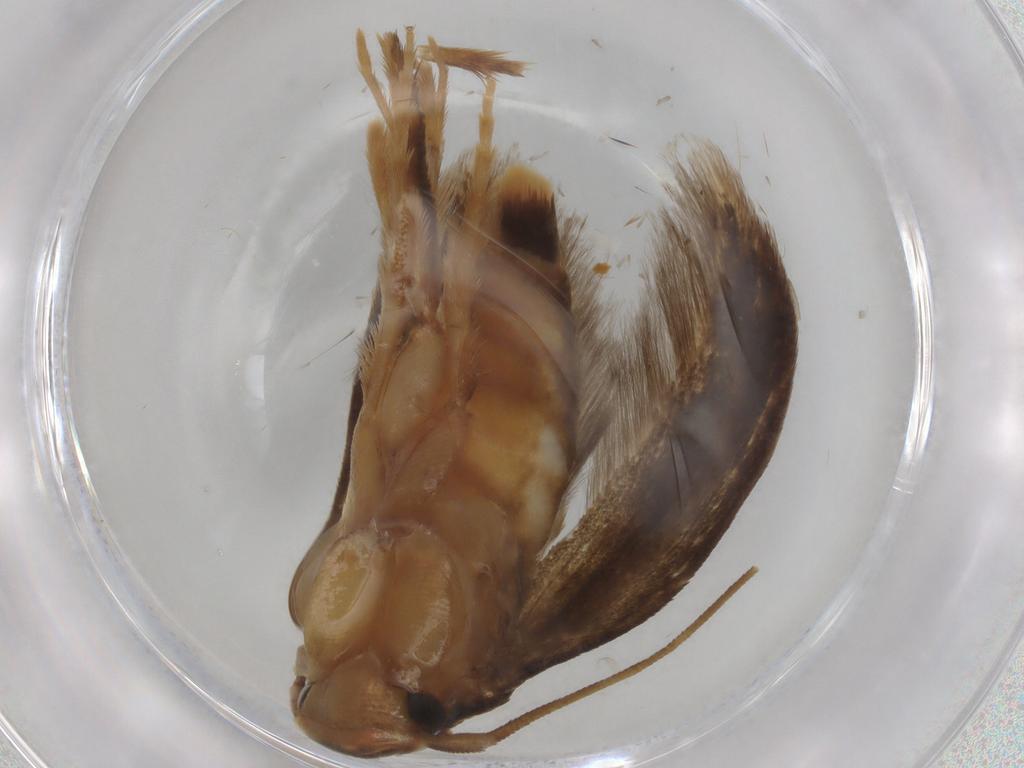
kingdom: Animalia
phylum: Arthropoda
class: Insecta
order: Lepidoptera
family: Tineidae
